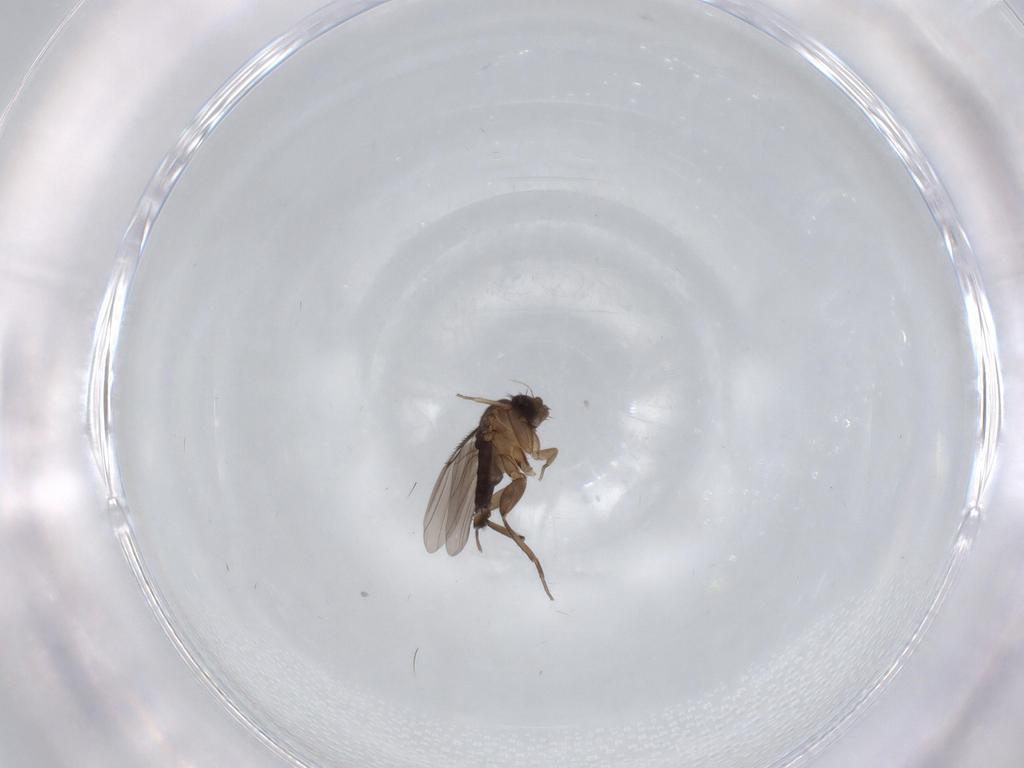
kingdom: Animalia
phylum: Arthropoda
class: Insecta
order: Diptera
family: Phoridae
